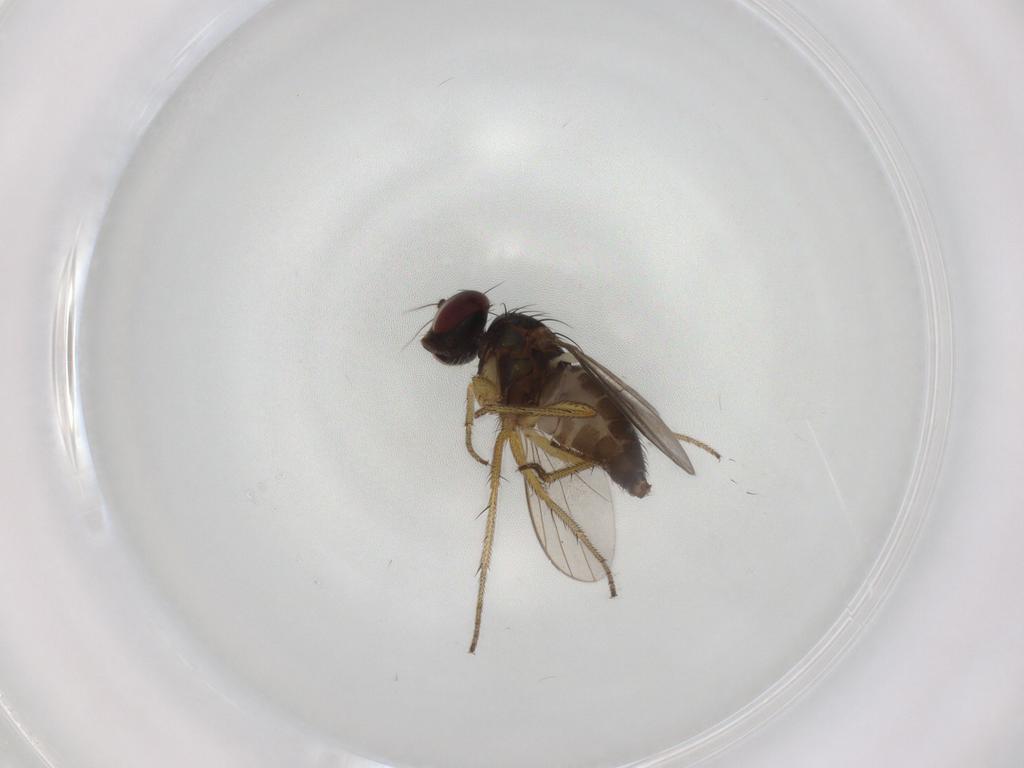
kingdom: Animalia
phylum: Arthropoda
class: Insecta
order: Diptera
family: Dolichopodidae
